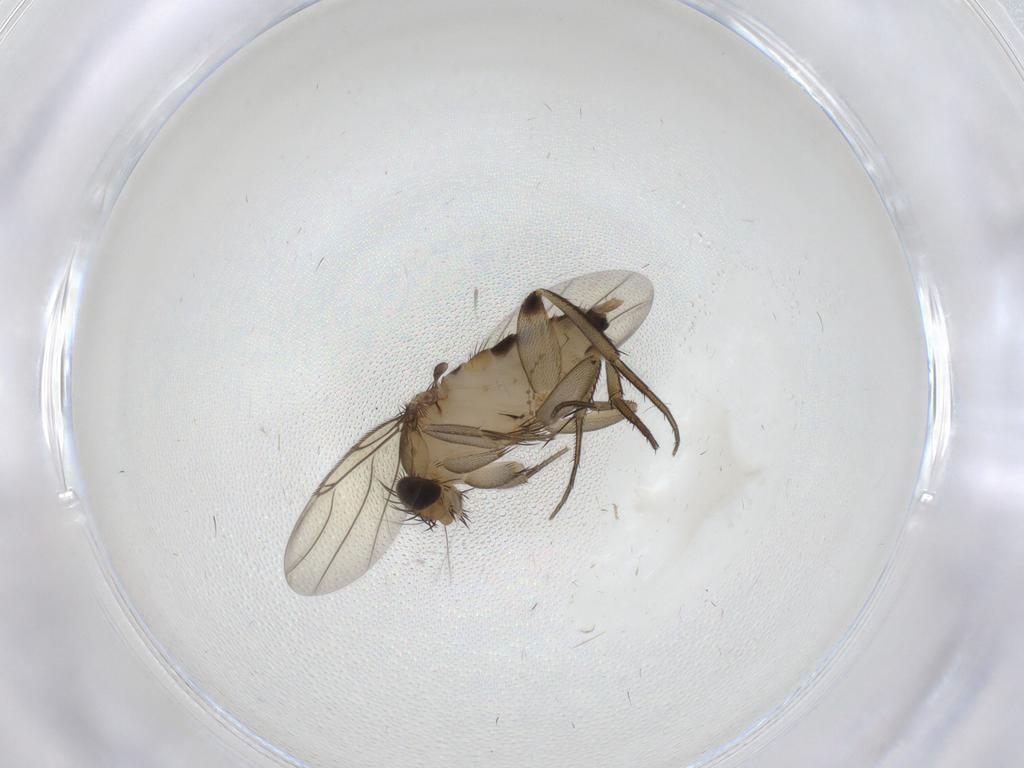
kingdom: Animalia
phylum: Arthropoda
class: Insecta
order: Diptera
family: Phoridae
